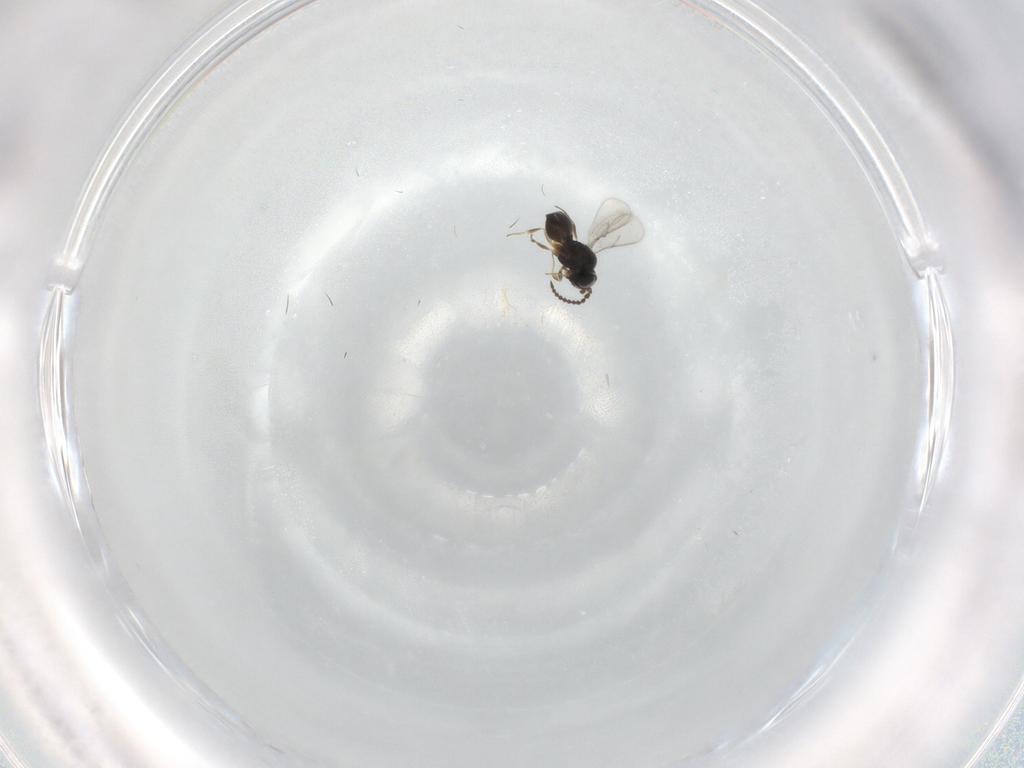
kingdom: Animalia
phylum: Arthropoda
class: Insecta
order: Hymenoptera
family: Scelionidae
